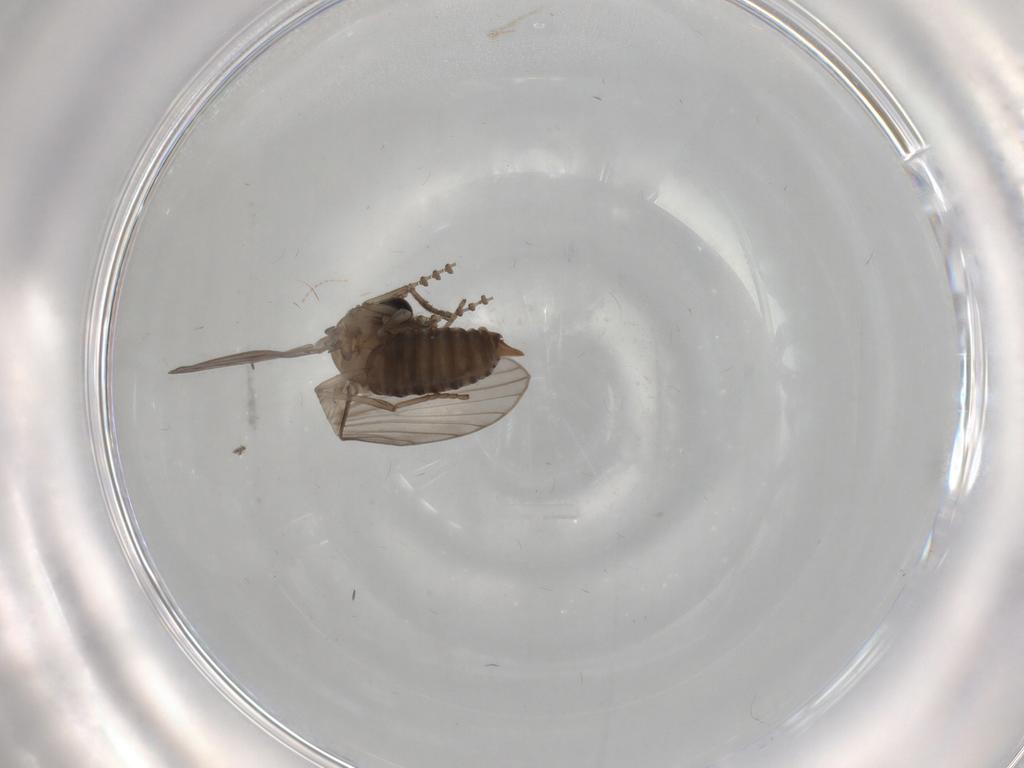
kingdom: Animalia
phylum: Arthropoda
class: Insecta
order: Diptera
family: Psychodidae
